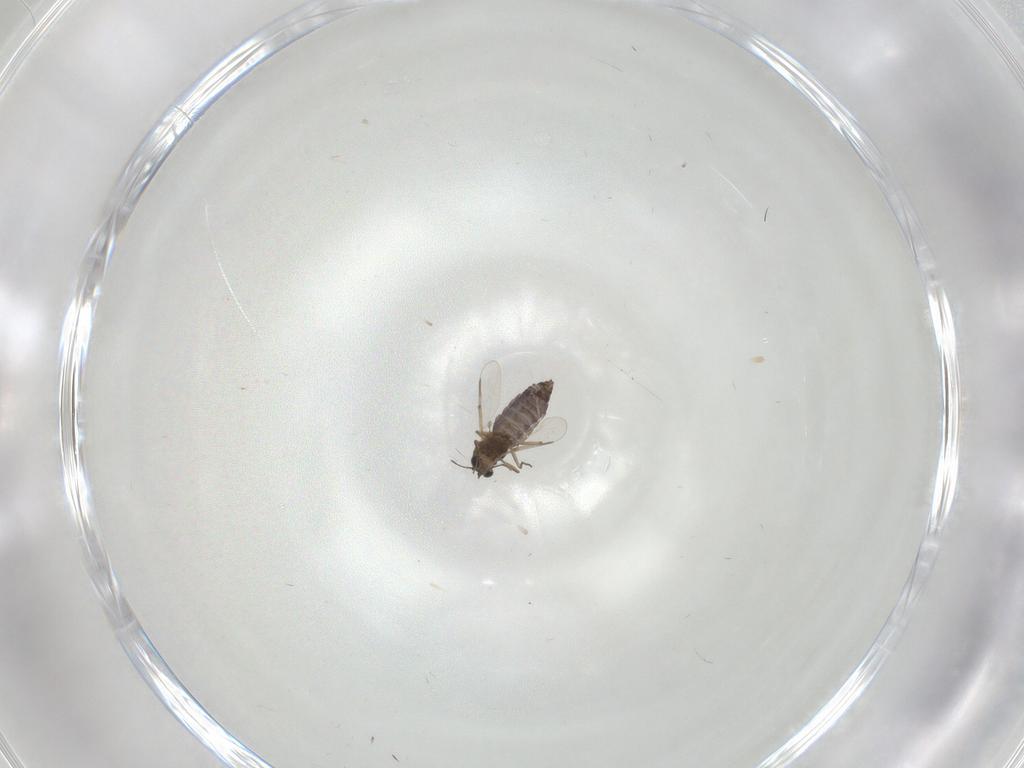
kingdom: Animalia
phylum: Arthropoda
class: Insecta
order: Diptera
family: Chironomidae
